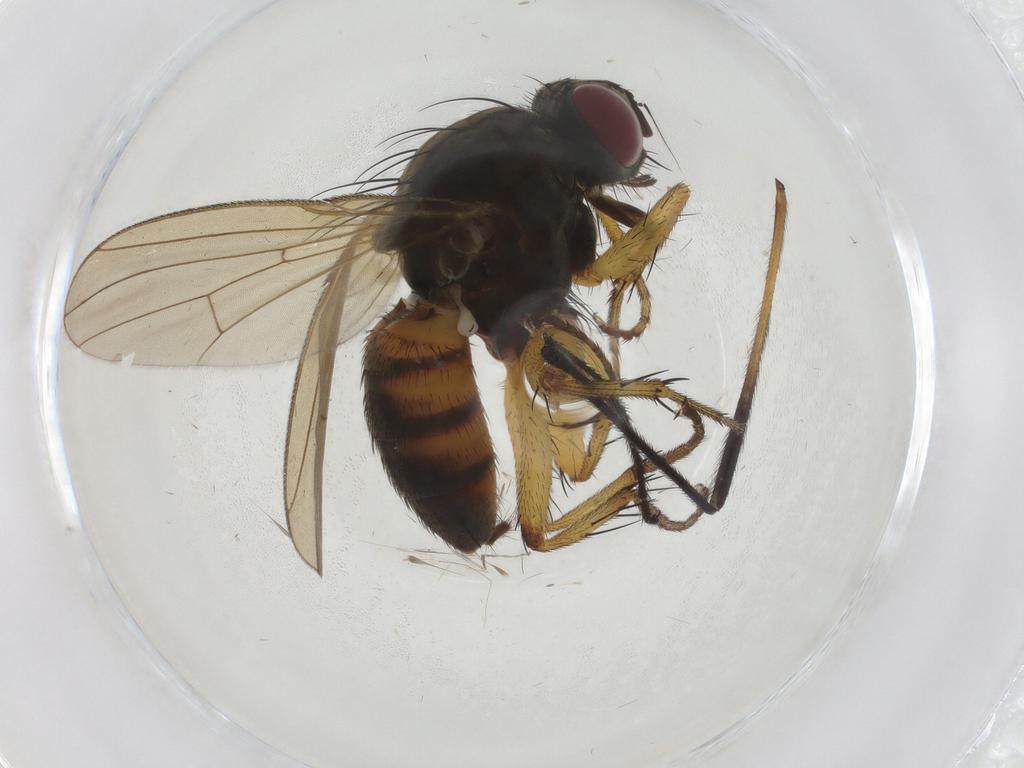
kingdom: Animalia
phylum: Arthropoda
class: Insecta
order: Diptera
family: Muscidae
